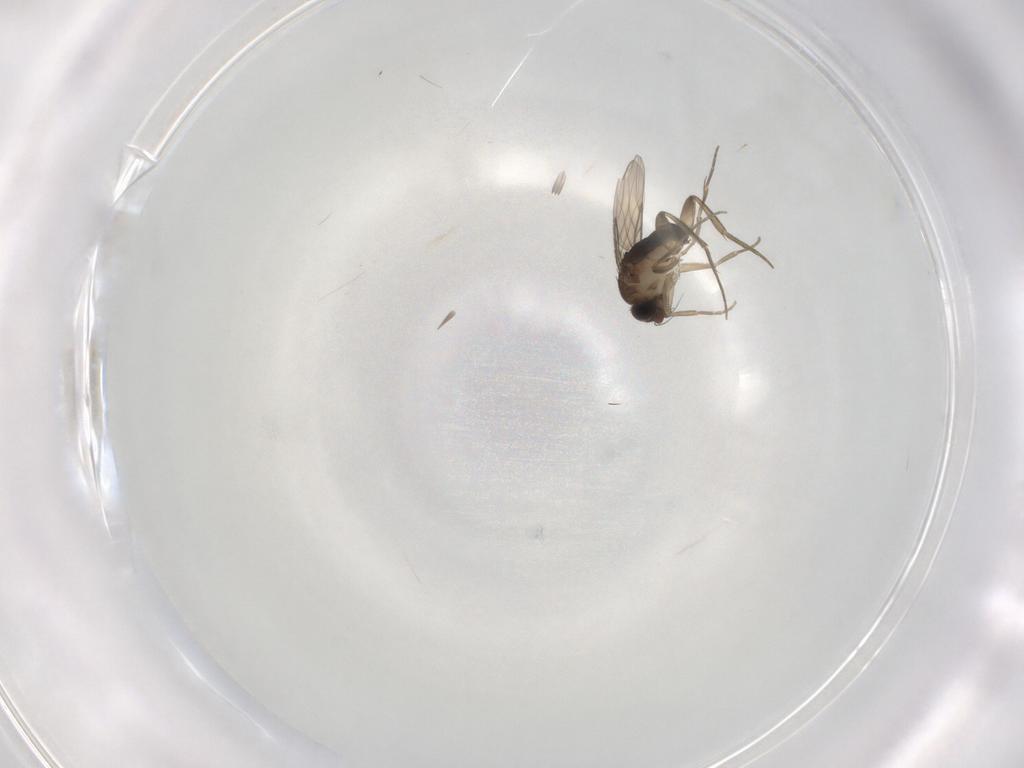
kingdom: Animalia
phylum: Arthropoda
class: Insecta
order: Diptera
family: Phoridae
